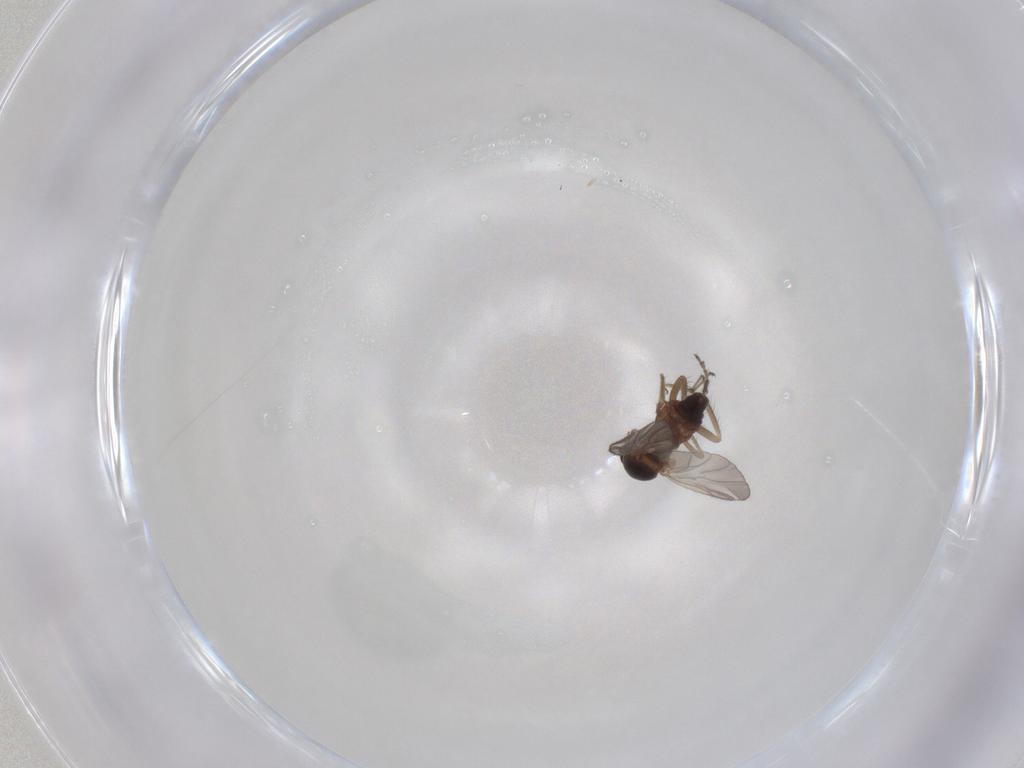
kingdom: Animalia
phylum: Arthropoda
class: Insecta
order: Diptera
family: Ceratopogonidae
